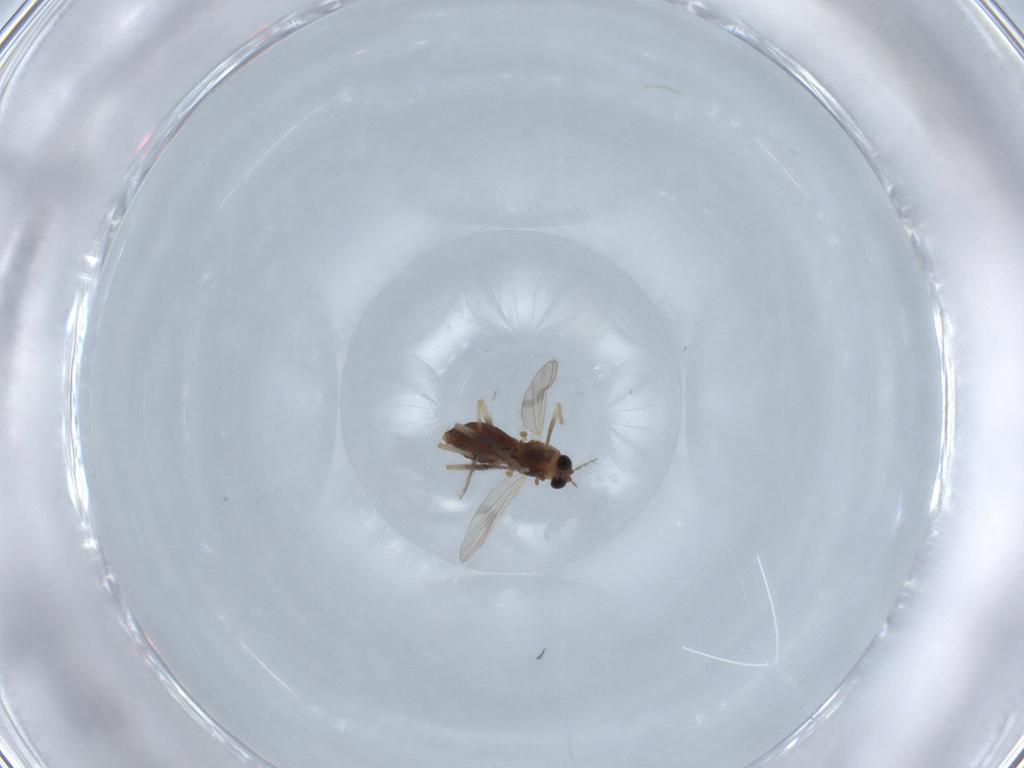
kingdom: Animalia
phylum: Arthropoda
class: Insecta
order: Diptera
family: Chironomidae
